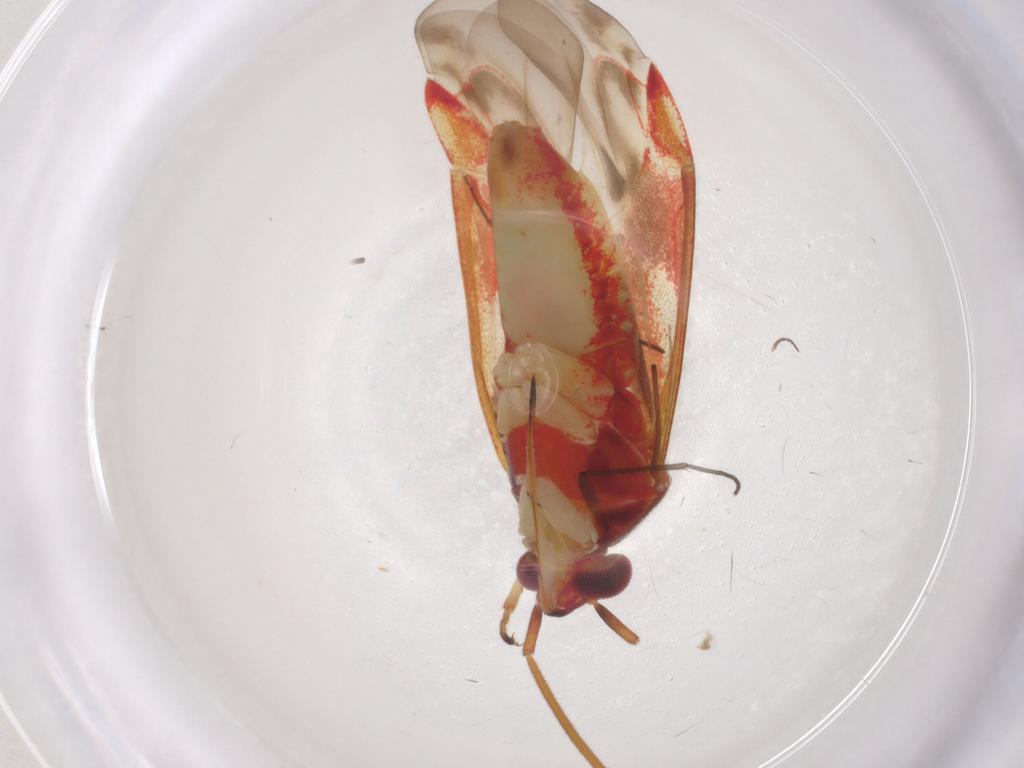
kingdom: Animalia
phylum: Arthropoda
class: Insecta
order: Hemiptera
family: Miridae
